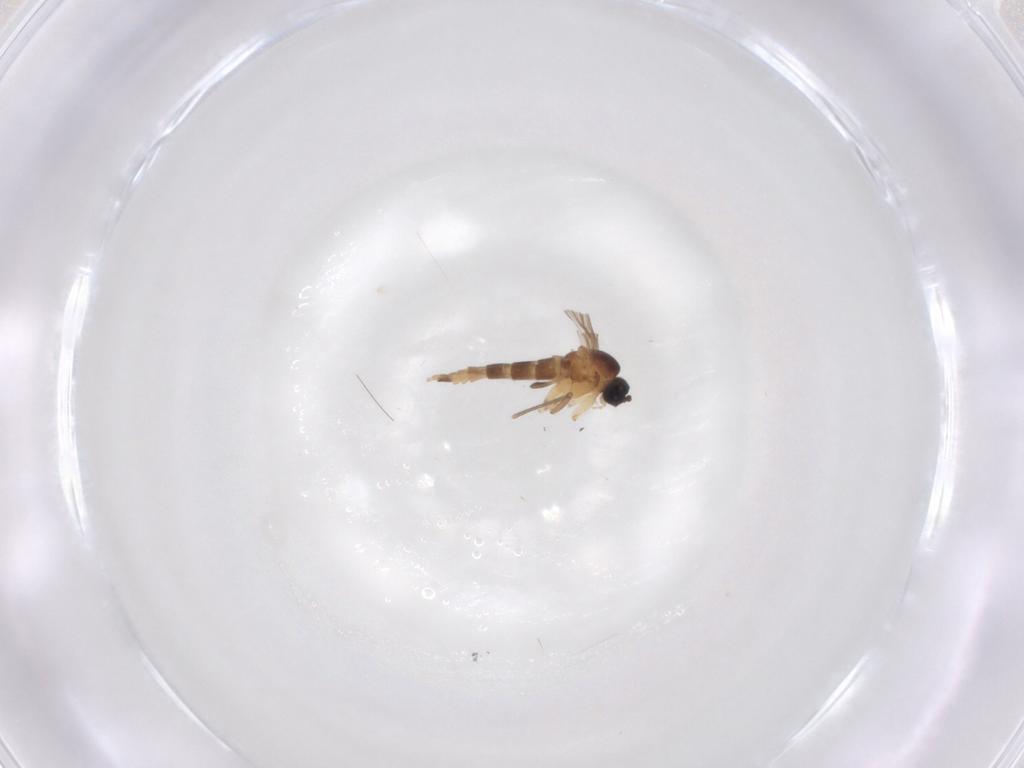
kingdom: Animalia
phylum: Arthropoda
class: Insecta
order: Diptera
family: Sciaridae
